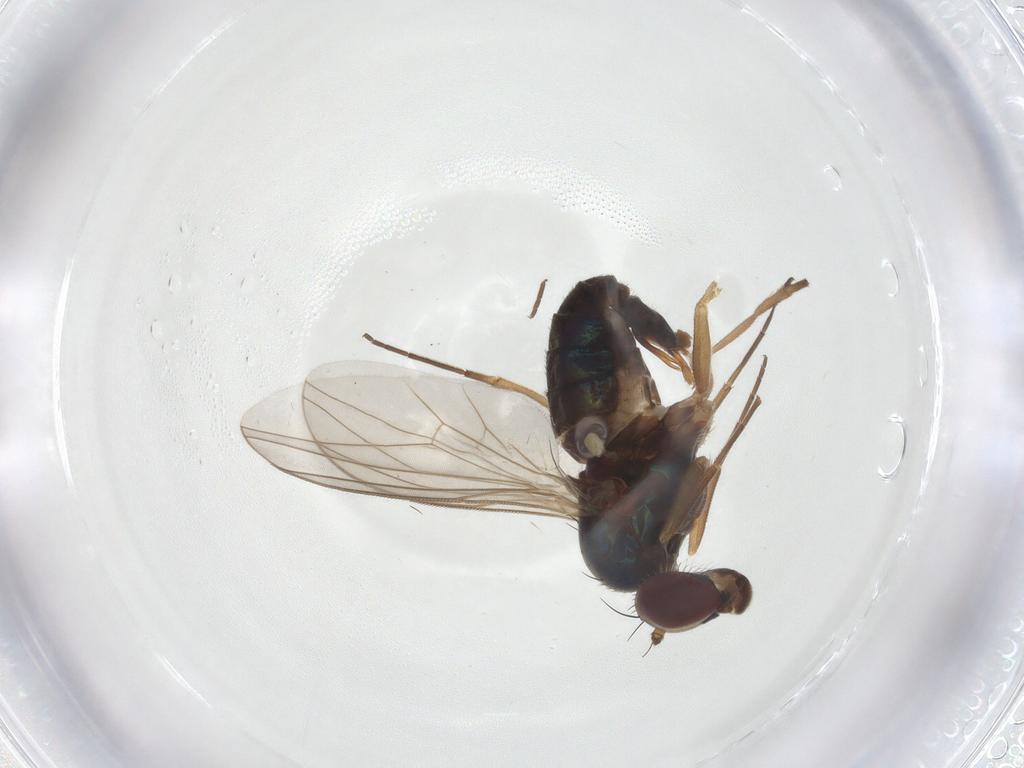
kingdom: Animalia
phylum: Arthropoda
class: Insecta
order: Diptera
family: Dolichopodidae
